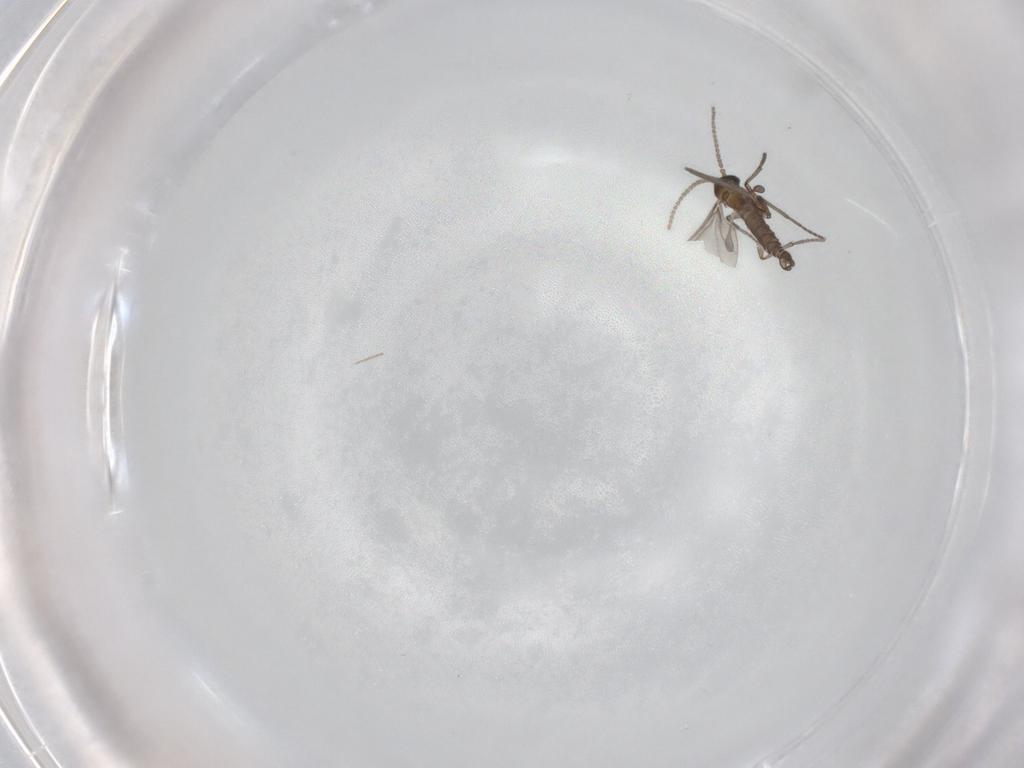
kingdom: Animalia
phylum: Arthropoda
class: Insecta
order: Diptera
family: Sciaridae
